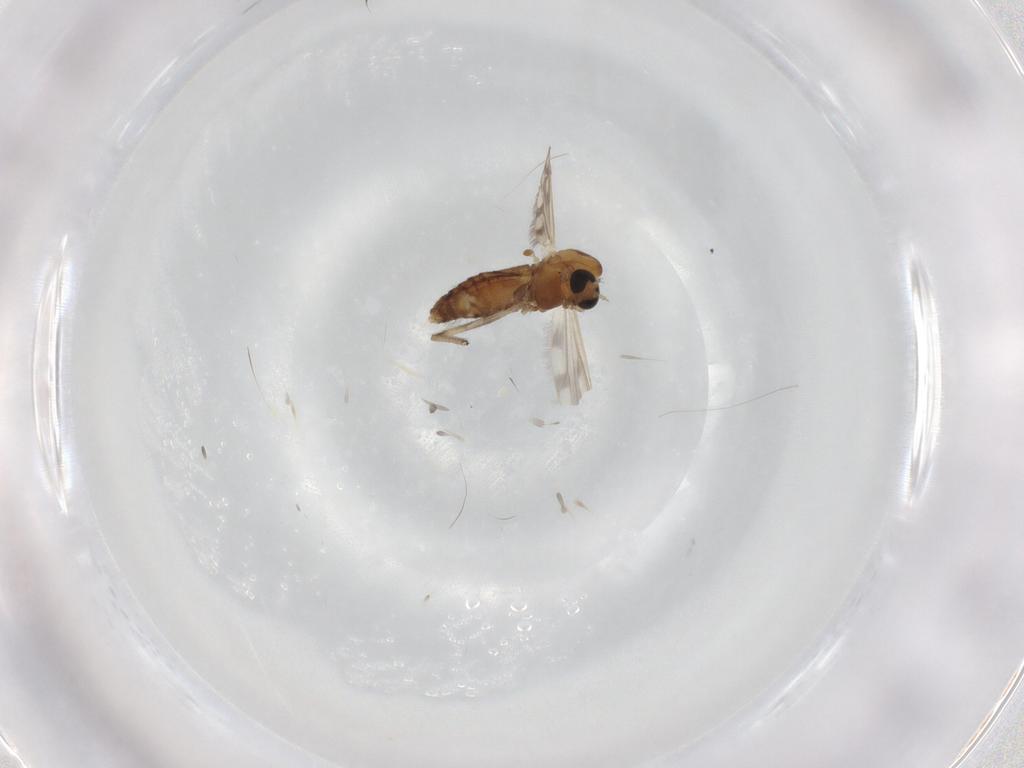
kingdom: Animalia
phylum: Arthropoda
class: Insecta
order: Diptera
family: Chironomidae
